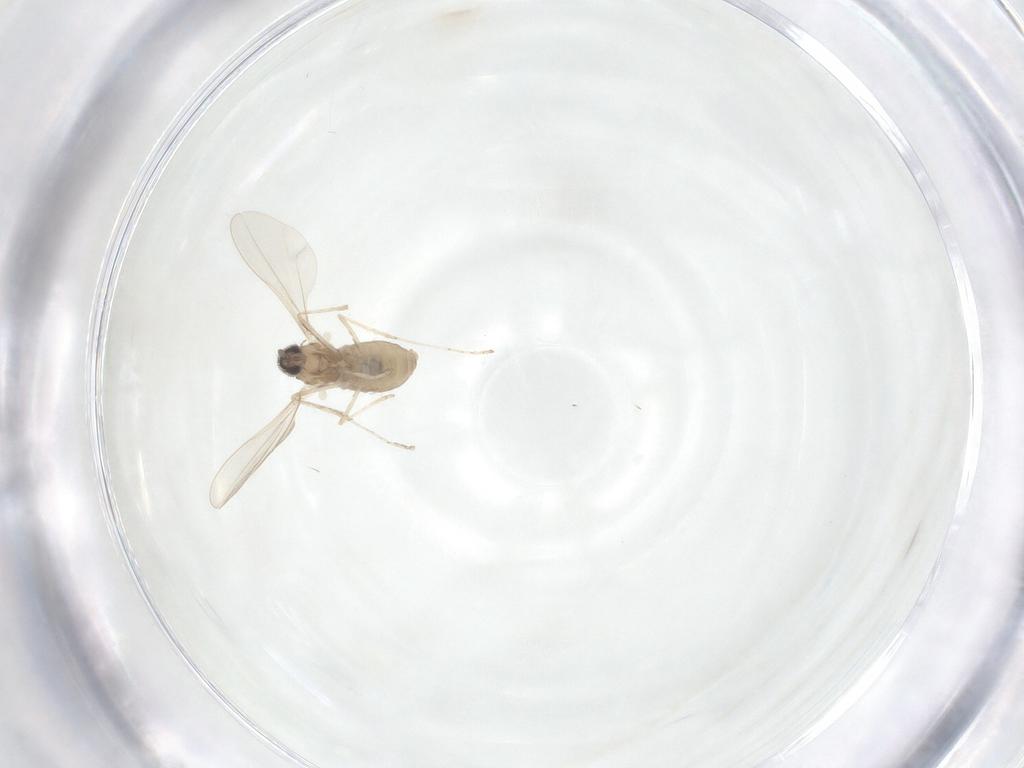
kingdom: Animalia
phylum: Arthropoda
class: Insecta
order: Diptera
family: Phoridae
